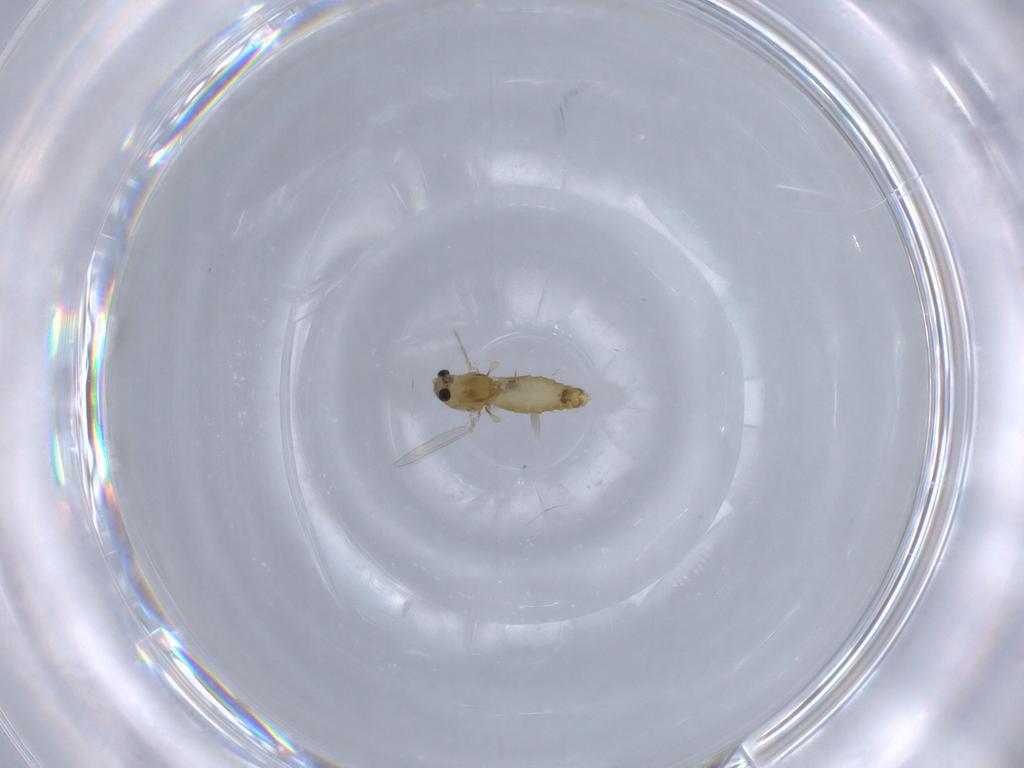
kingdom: Animalia
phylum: Arthropoda
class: Insecta
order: Diptera
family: Chironomidae
